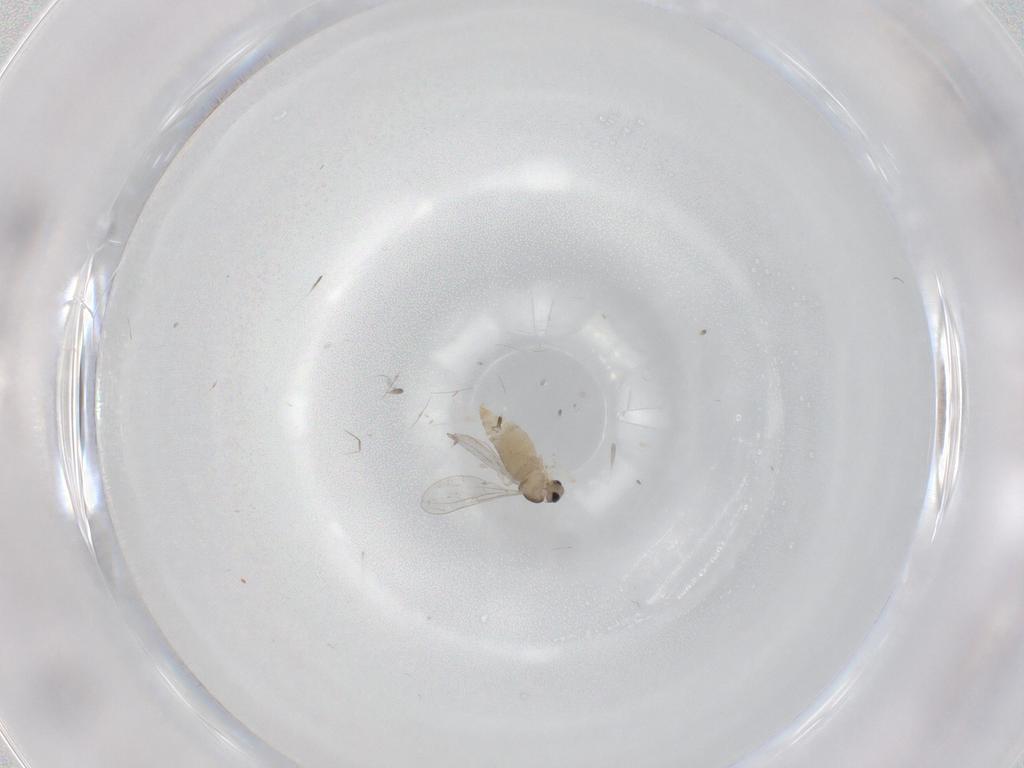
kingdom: Animalia
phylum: Arthropoda
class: Insecta
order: Diptera
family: Cecidomyiidae
